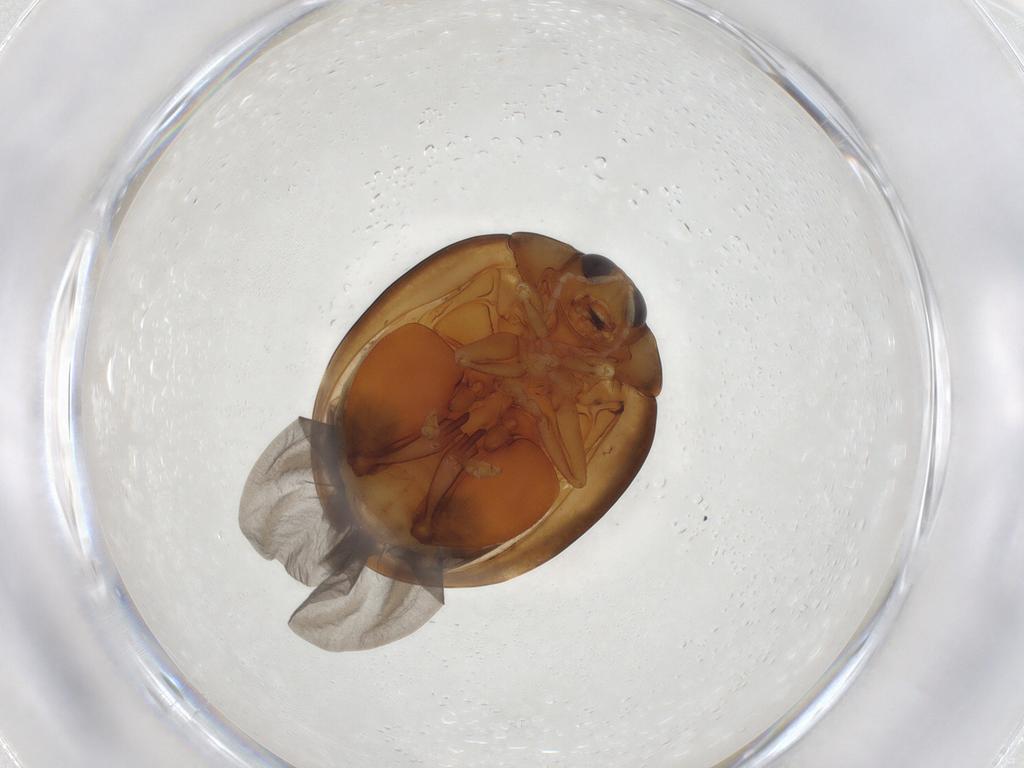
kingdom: Animalia
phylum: Arthropoda
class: Insecta
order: Coleoptera
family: Chrysomelidae
